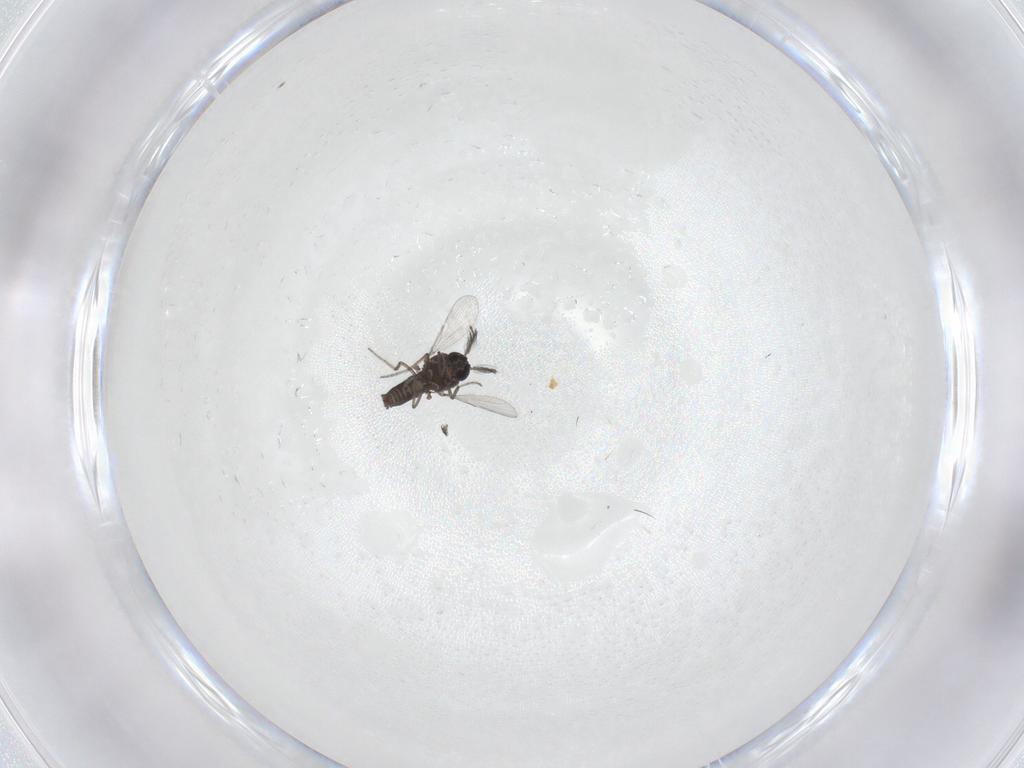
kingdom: Animalia
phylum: Arthropoda
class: Insecta
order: Diptera
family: Ceratopogonidae
